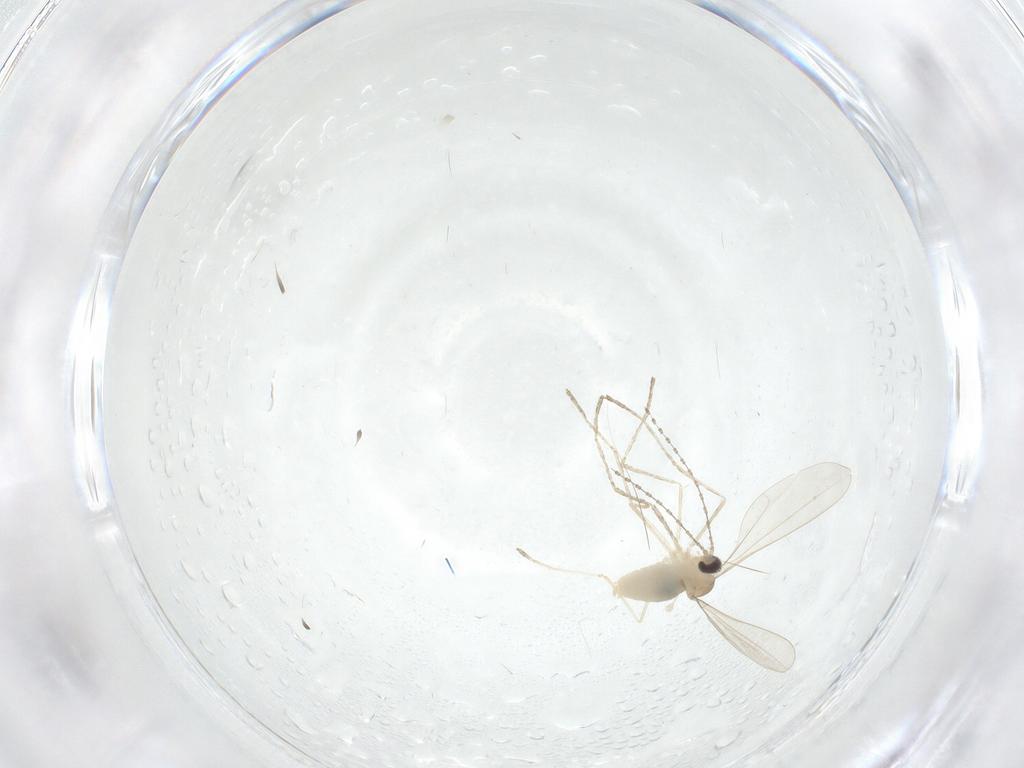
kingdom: Animalia
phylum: Arthropoda
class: Insecta
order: Diptera
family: Cecidomyiidae
